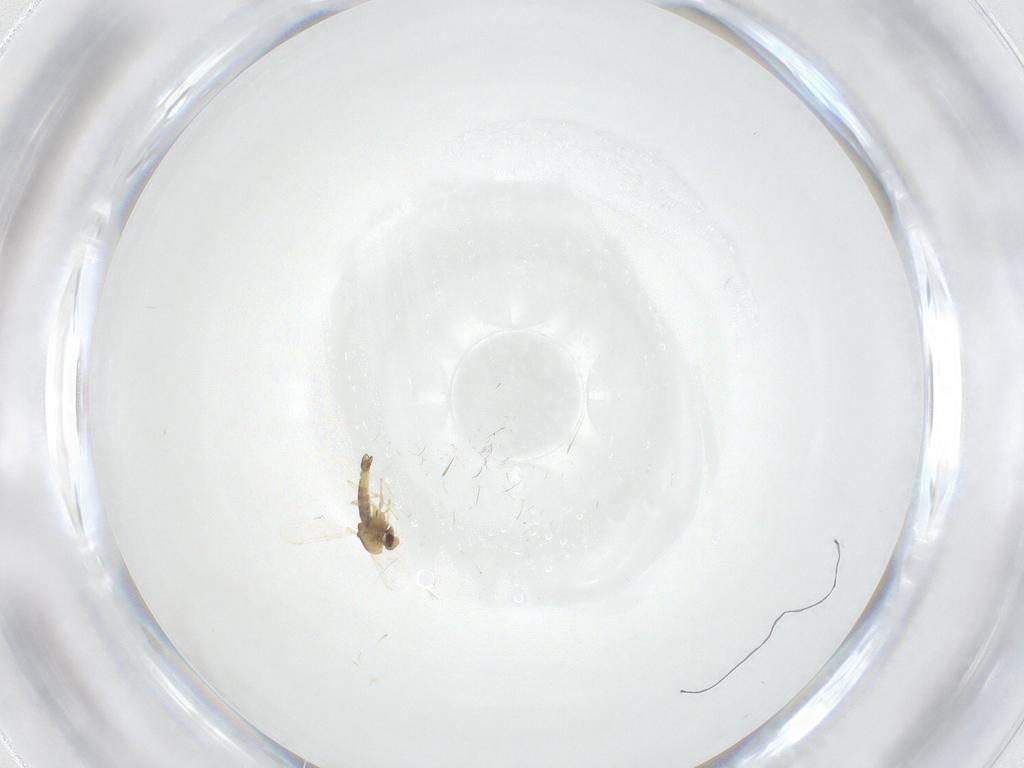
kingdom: Animalia
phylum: Arthropoda
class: Insecta
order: Diptera
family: Chironomidae
